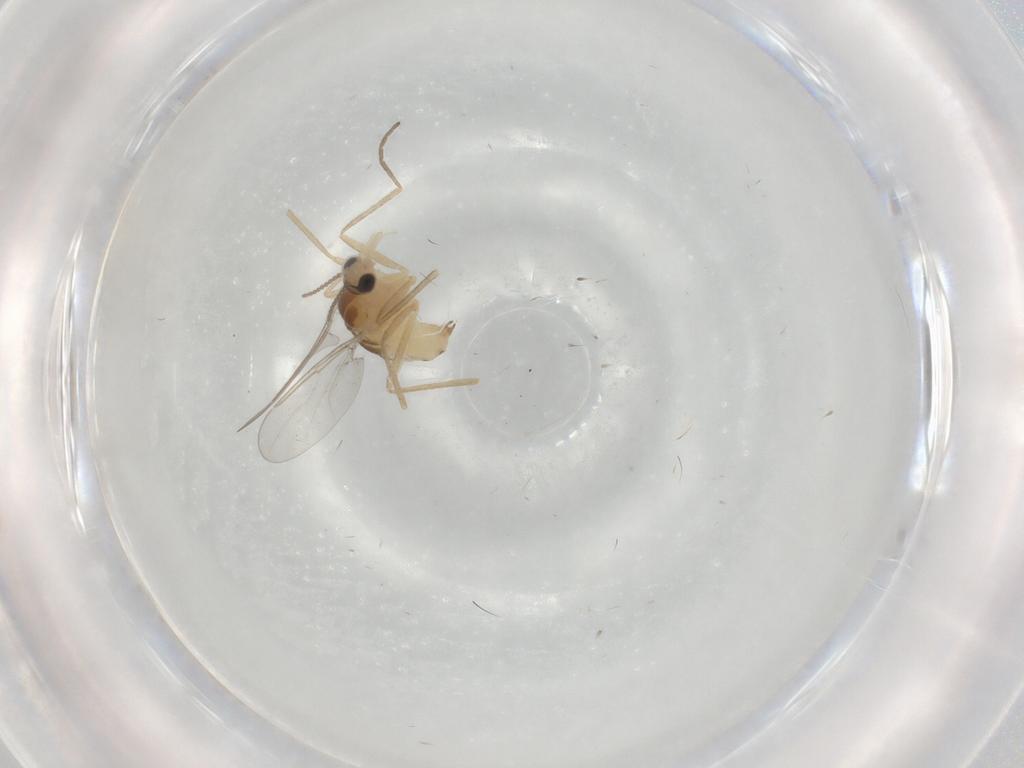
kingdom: Animalia
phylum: Arthropoda
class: Insecta
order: Diptera
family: Cecidomyiidae
